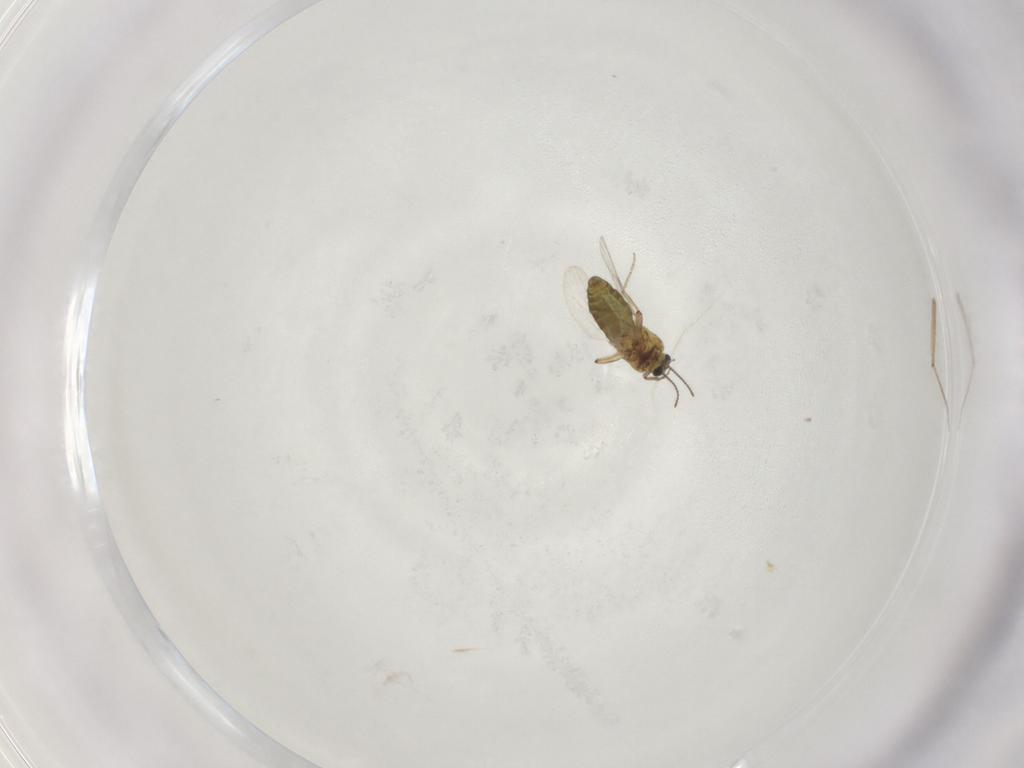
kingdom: Animalia
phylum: Arthropoda
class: Insecta
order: Diptera
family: Ceratopogonidae
